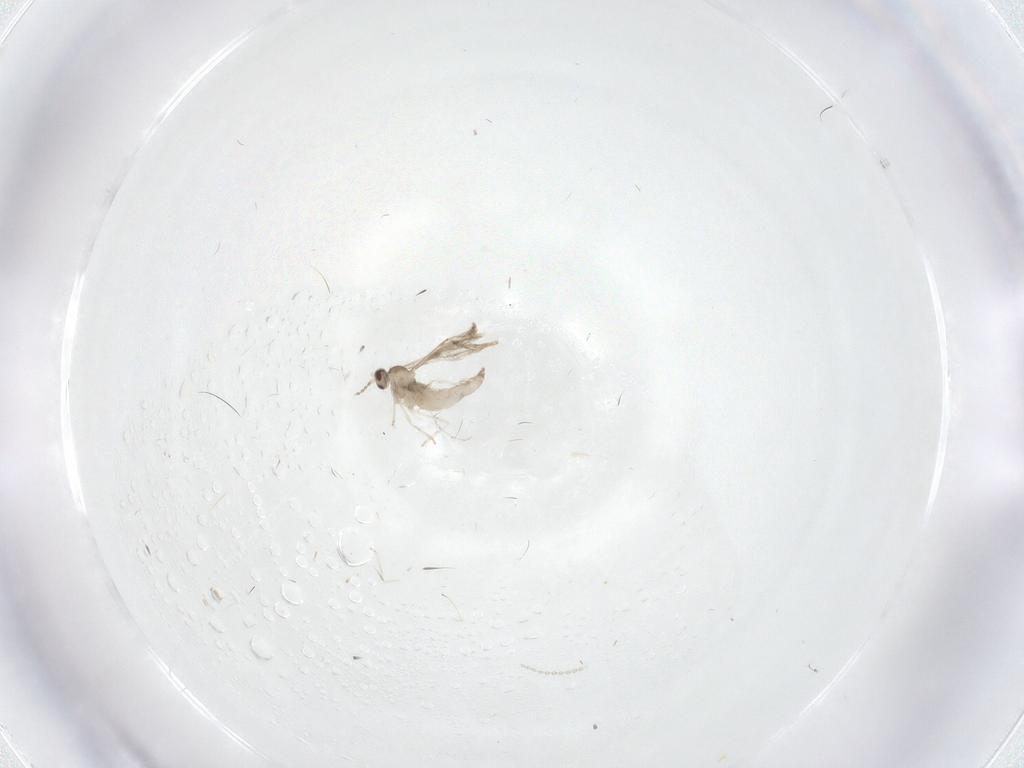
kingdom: Animalia
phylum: Arthropoda
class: Insecta
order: Diptera
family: Cecidomyiidae
